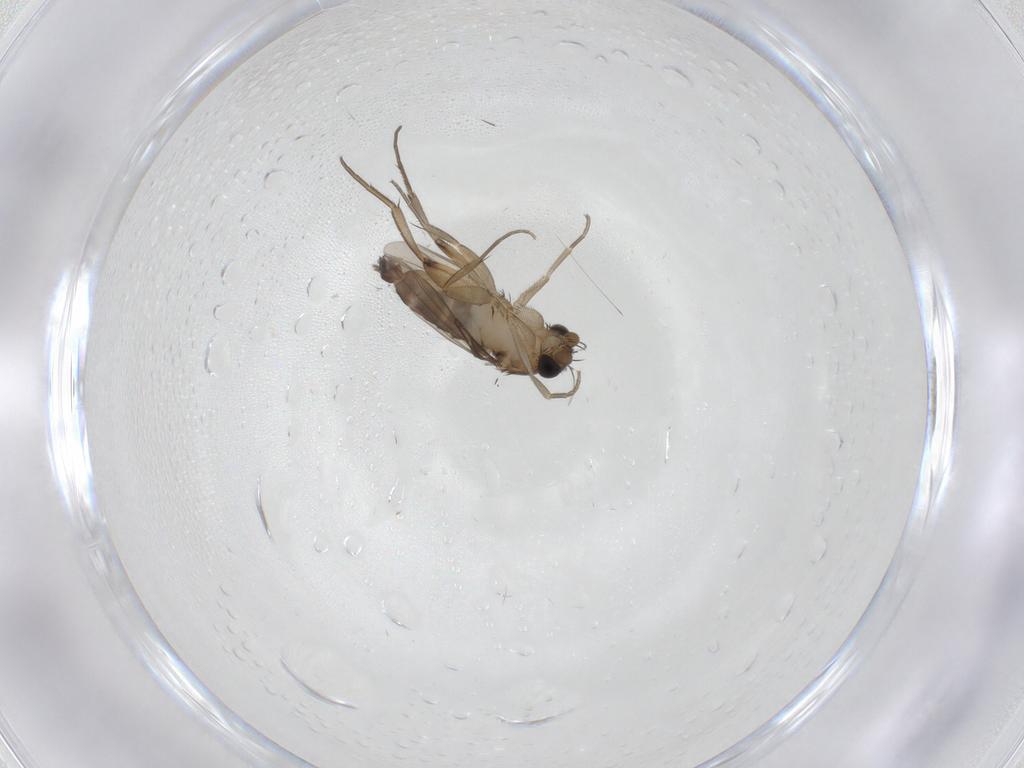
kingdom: Animalia
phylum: Arthropoda
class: Insecta
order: Diptera
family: Phoridae
